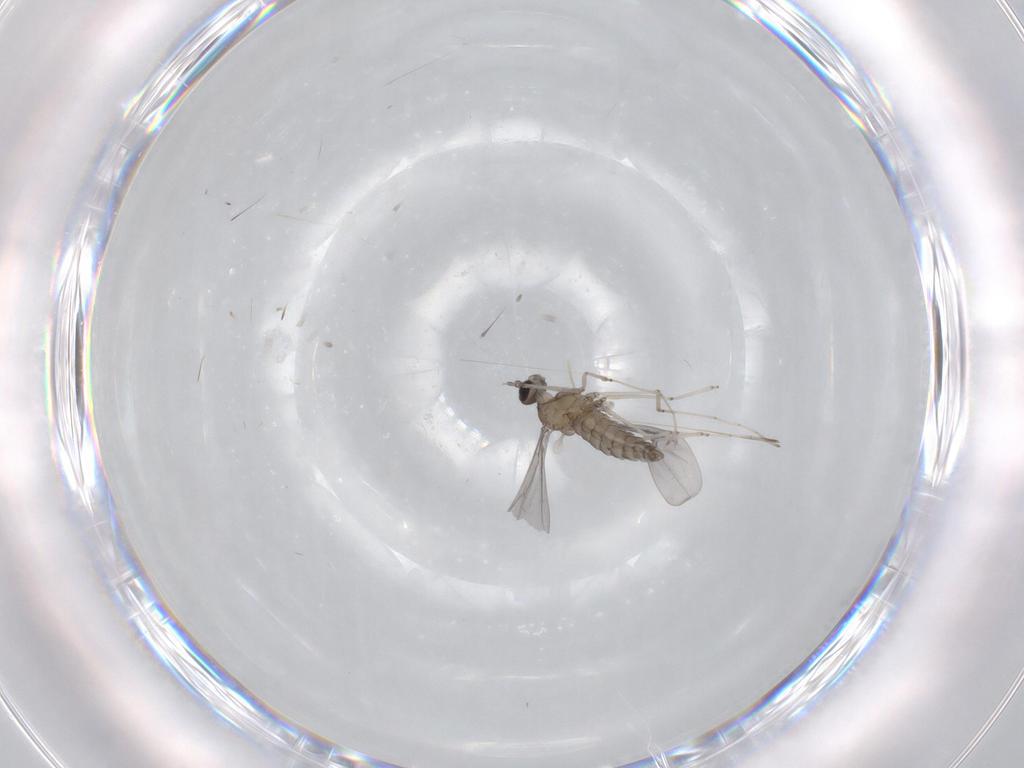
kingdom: Animalia
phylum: Arthropoda
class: Insecta
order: Diptera
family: Cecidomyiidae
